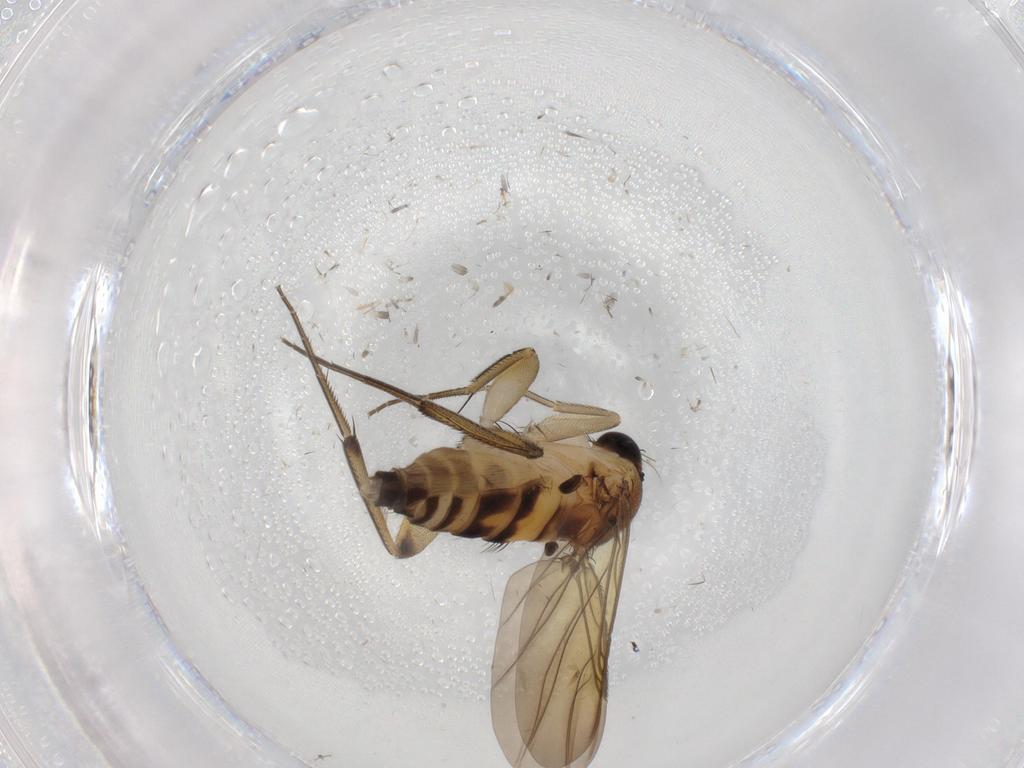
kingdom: Animalia
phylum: Arthropoda
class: Insecta
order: Diptera
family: Phoridae
